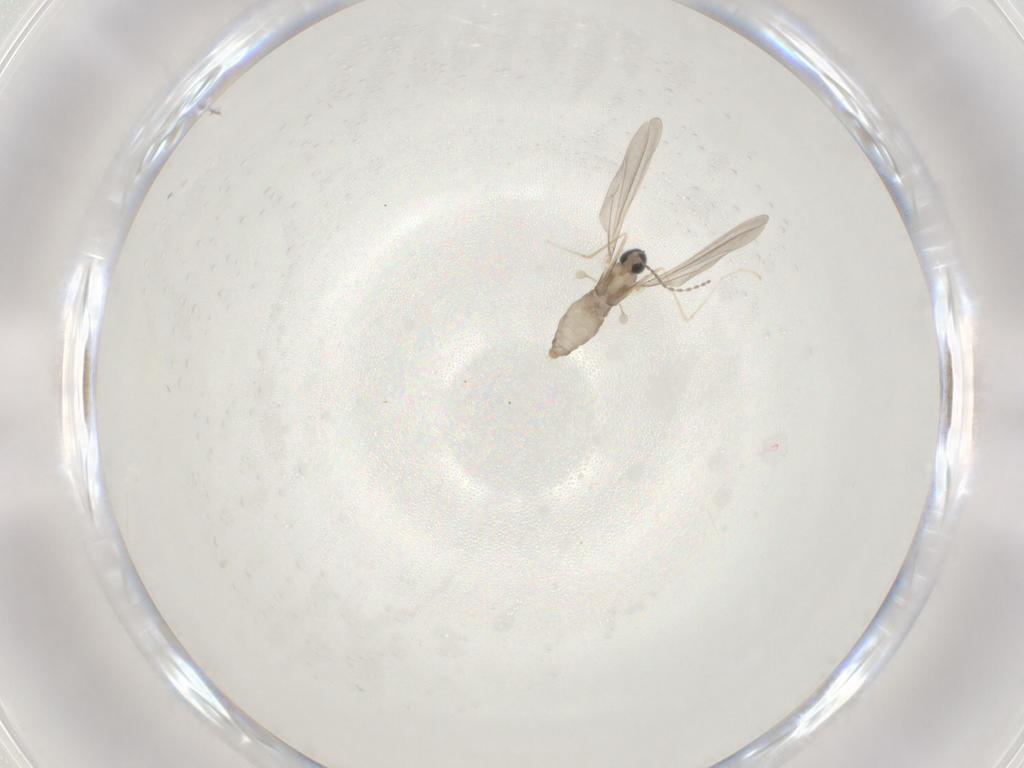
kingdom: Animalia
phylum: Arthropoda
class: Insecta
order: Diptera
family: Cecidomyiidae
